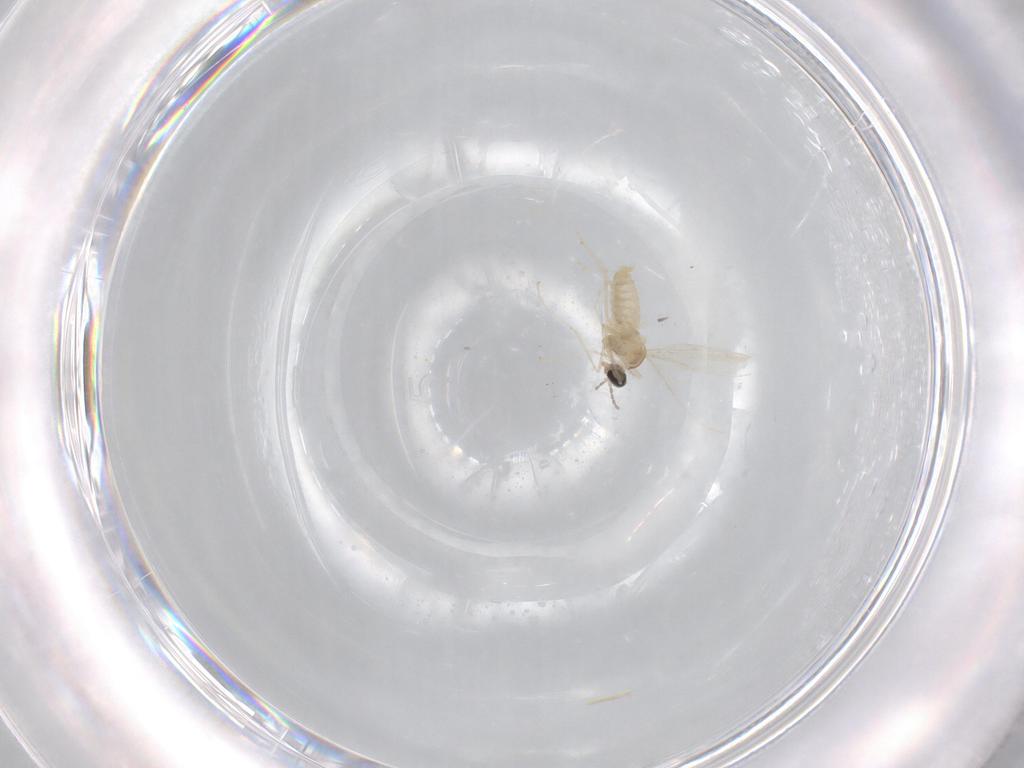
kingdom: Animalia
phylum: Arthropoda
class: Insecta
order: Diptera
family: Cecidomyiidae
